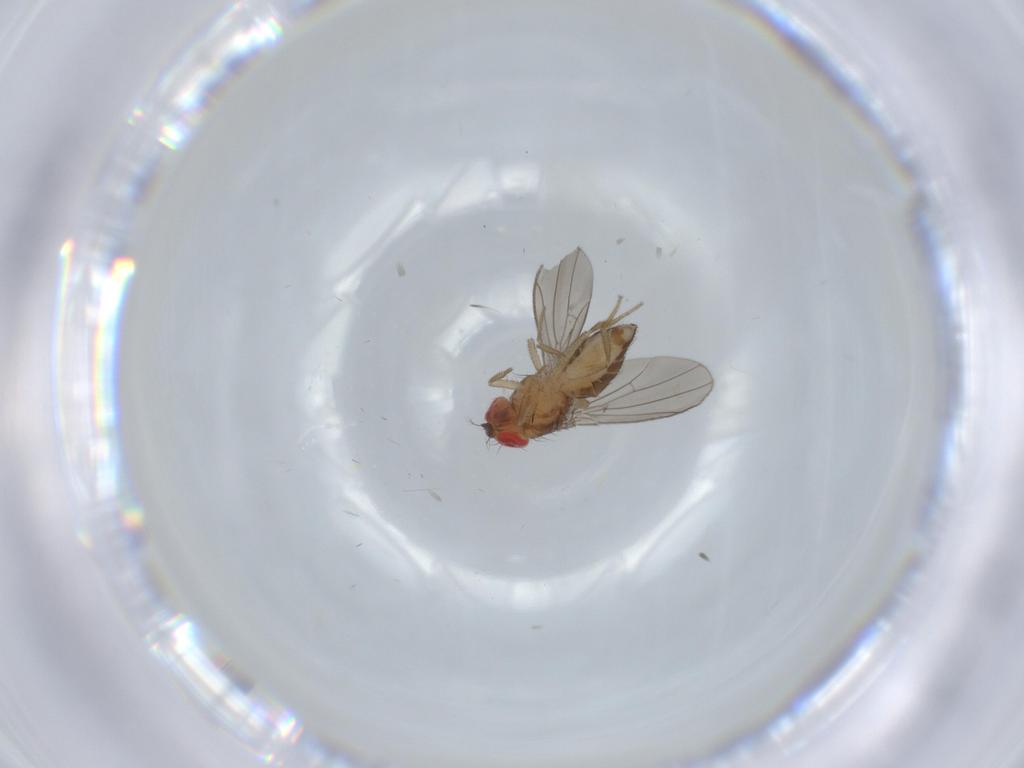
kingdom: Animalia
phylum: Arthropoda
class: Insecta
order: Diptera
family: Drosophilidae
